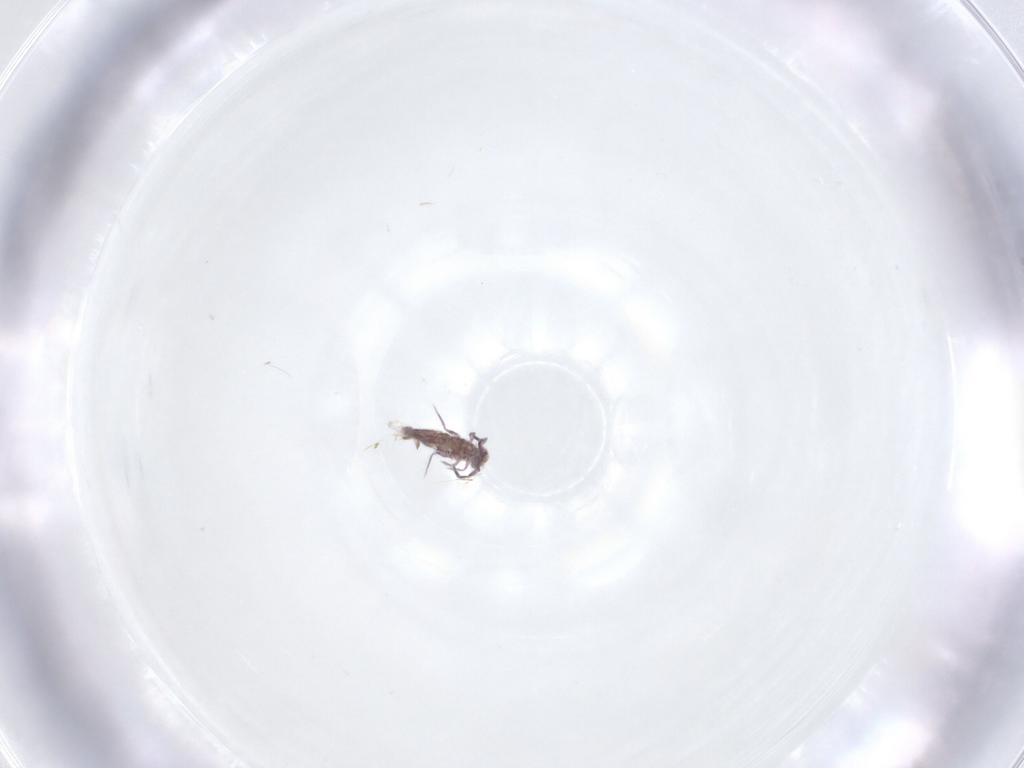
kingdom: Animalia
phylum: Arthropoda
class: Collembola
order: Entomobryomorpha
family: Entomobryidae
